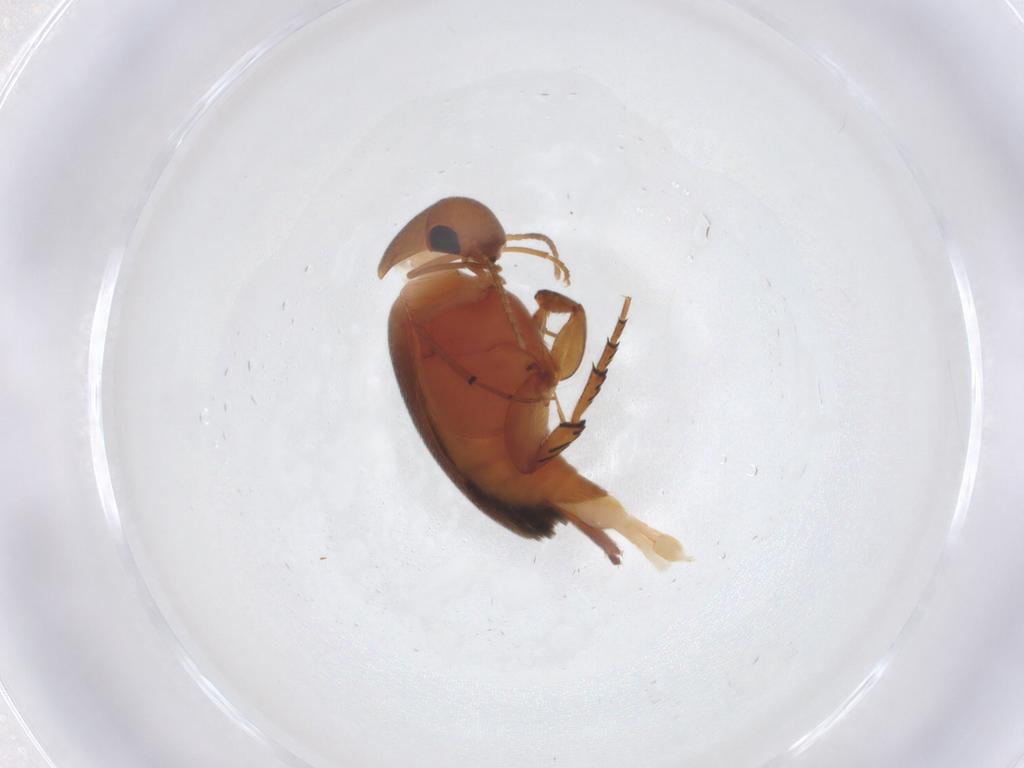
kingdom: Animalia
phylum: Arthropoda
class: Insecta
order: Coleoptera
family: Mordellidae
